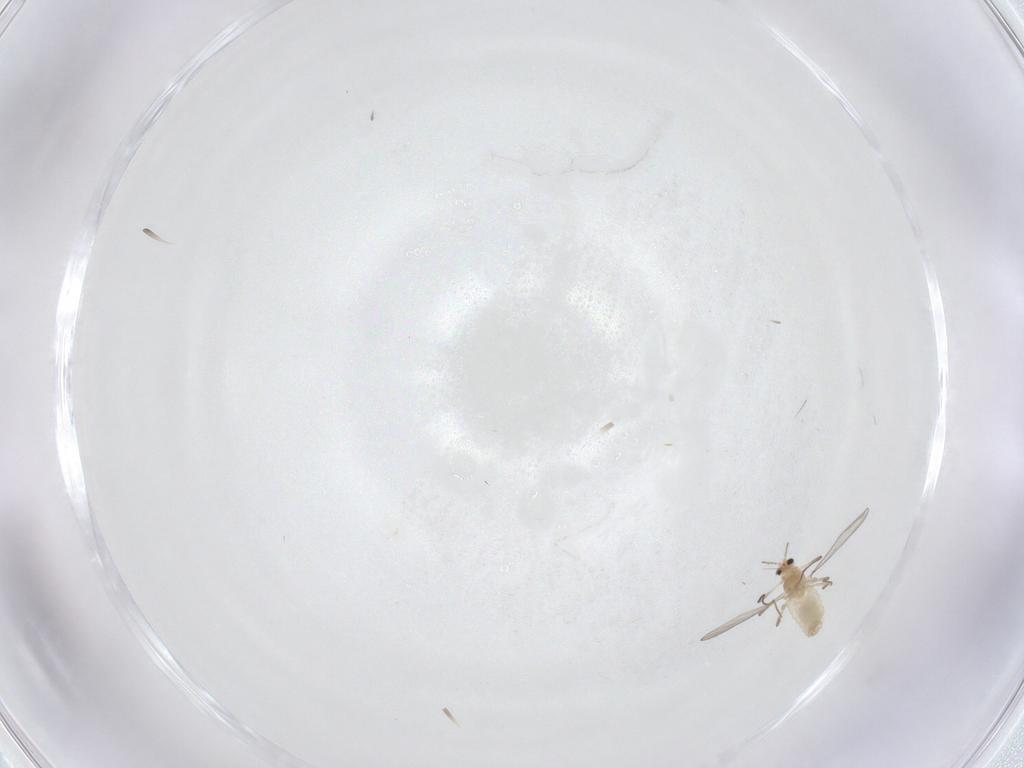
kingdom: Animalia
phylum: Arthropoda
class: Insecta
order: Diptera
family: Chironomidae
